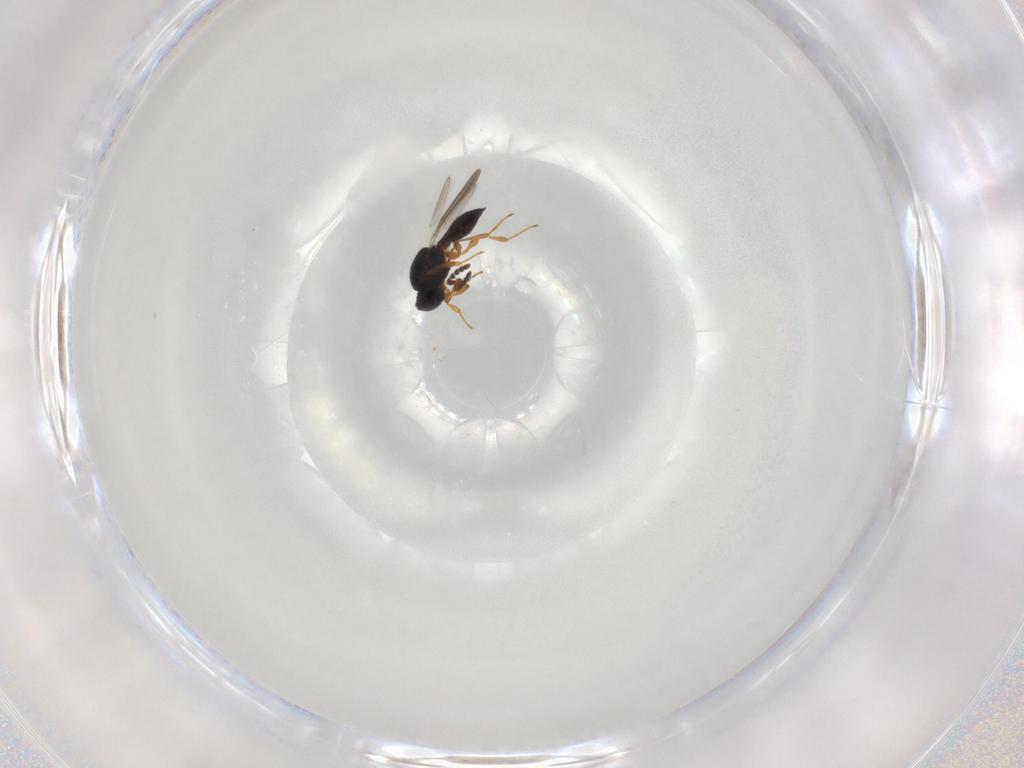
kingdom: Animalia
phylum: Arthropoda
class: Insecta
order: Hymenoptera
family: Platygastridae
